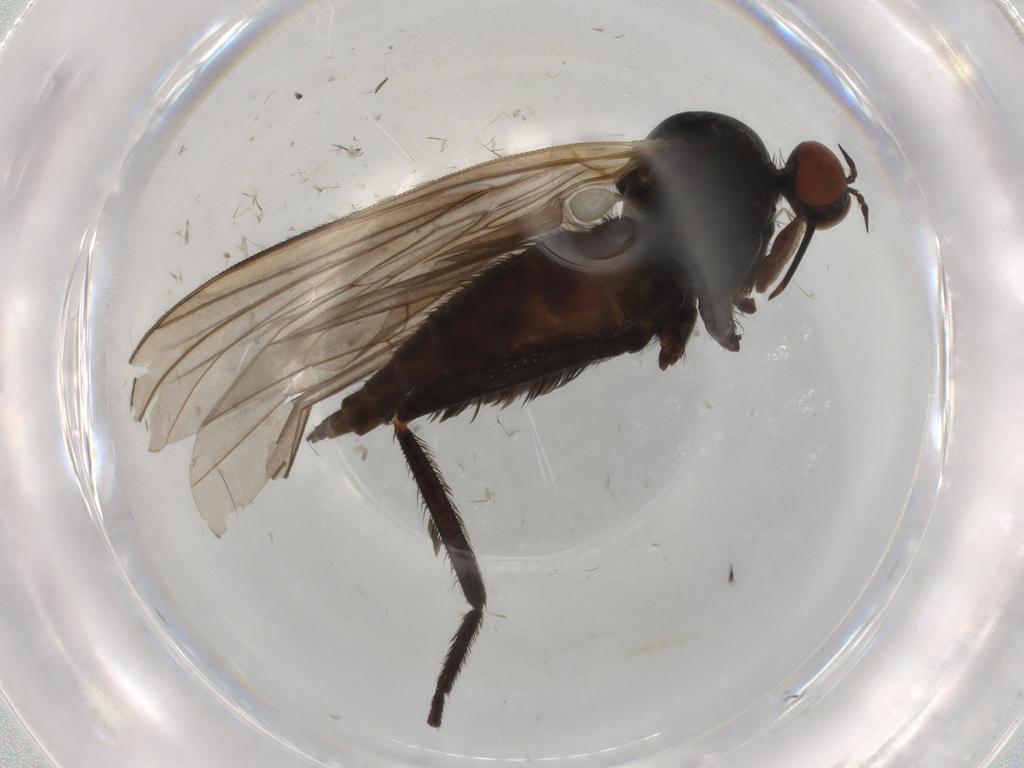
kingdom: Animalia
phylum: Arthropoda
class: Insecta
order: Diptera
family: Empididae
